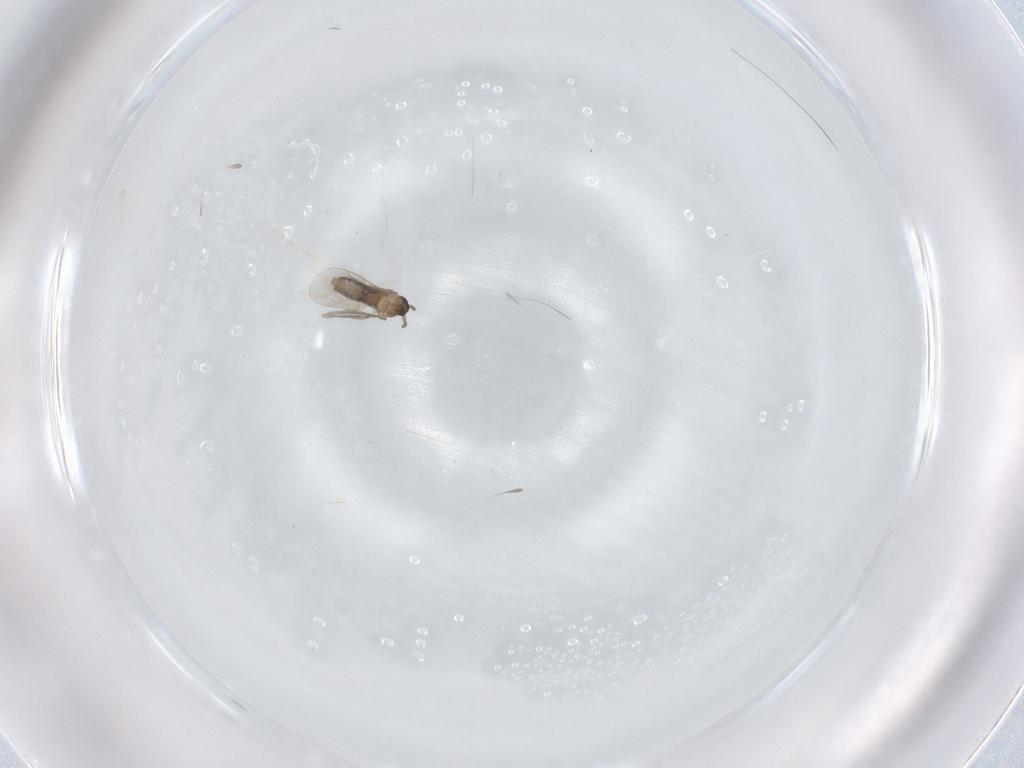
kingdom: Animalia
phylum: Arthropoda
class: Insecta
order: Diptera
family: Cecidomyiidae
